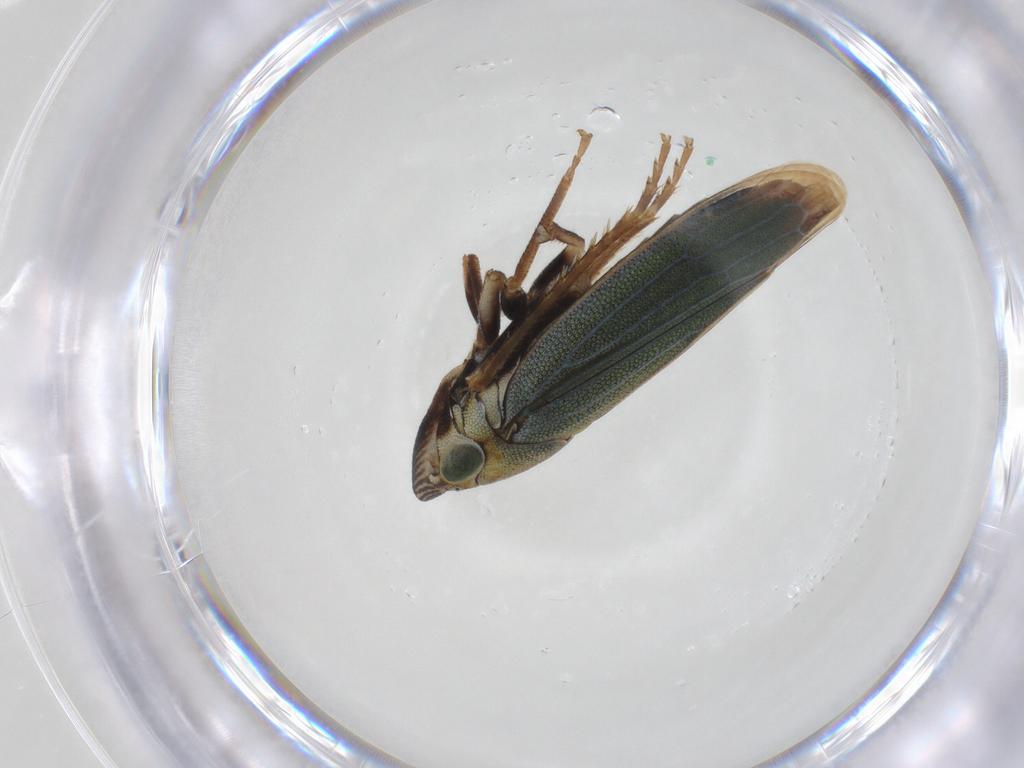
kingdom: Animalia
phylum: Arthropoda
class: Insecta
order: Hemiptera
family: Cicadellidae
